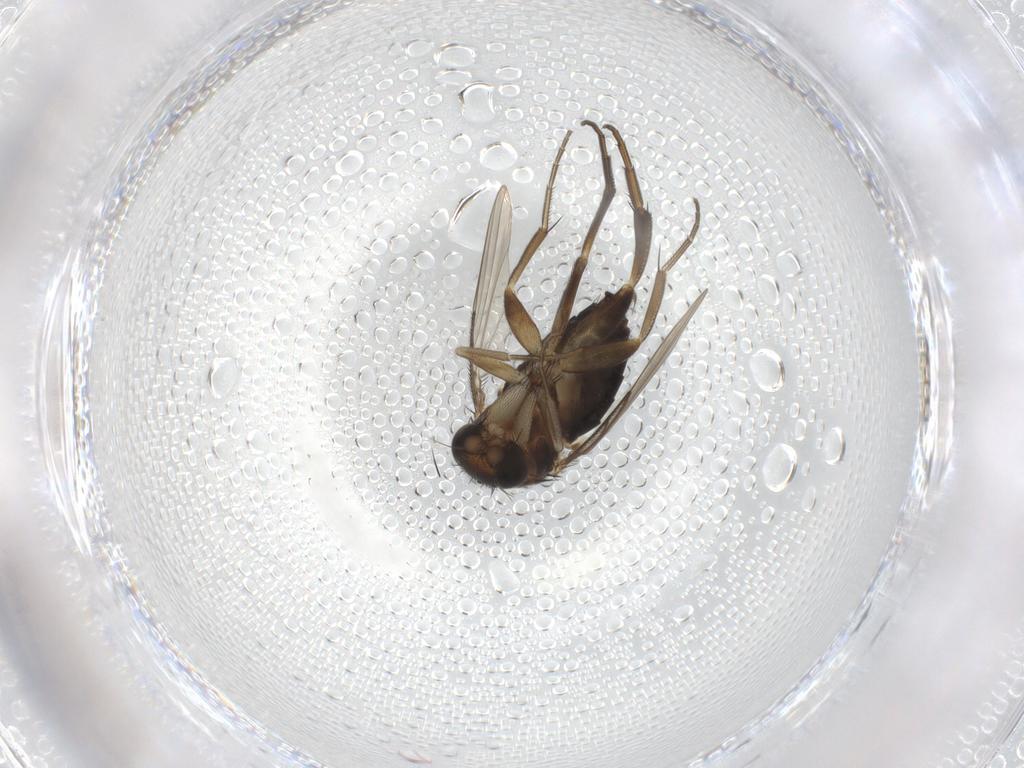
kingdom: Animalia
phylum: Arthropoda
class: Insecta
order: Diptera
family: Phoridae
